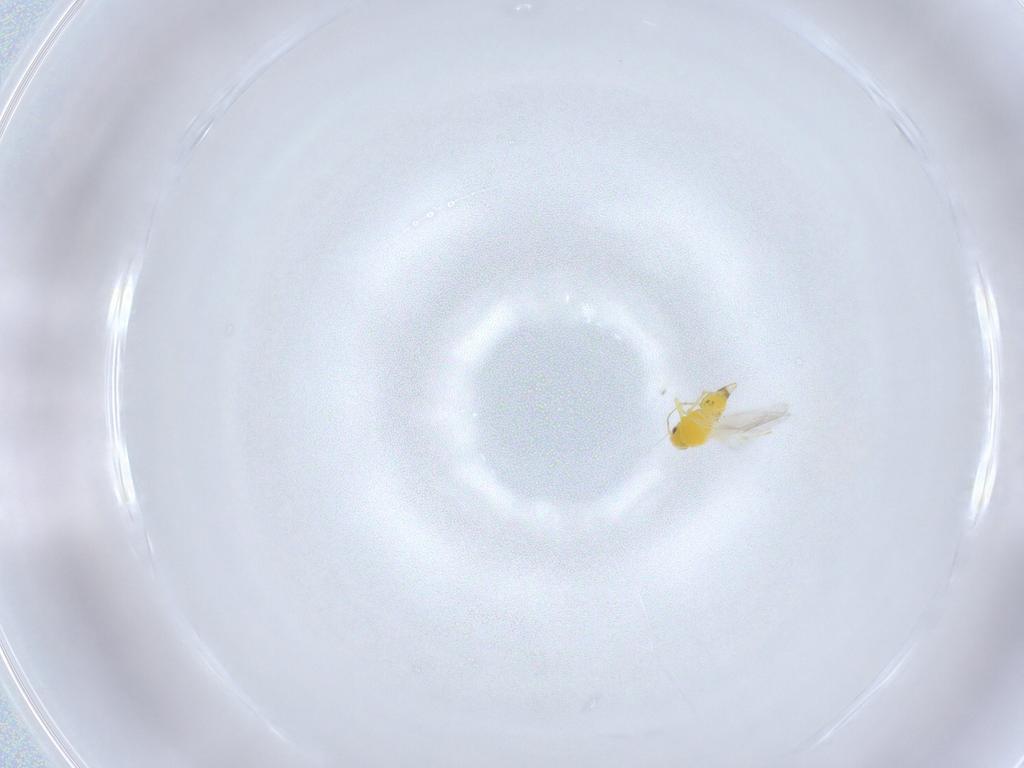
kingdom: Animalia
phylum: Arthropoda
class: Insecta
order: Hemiptera
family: Aleyrodidae
